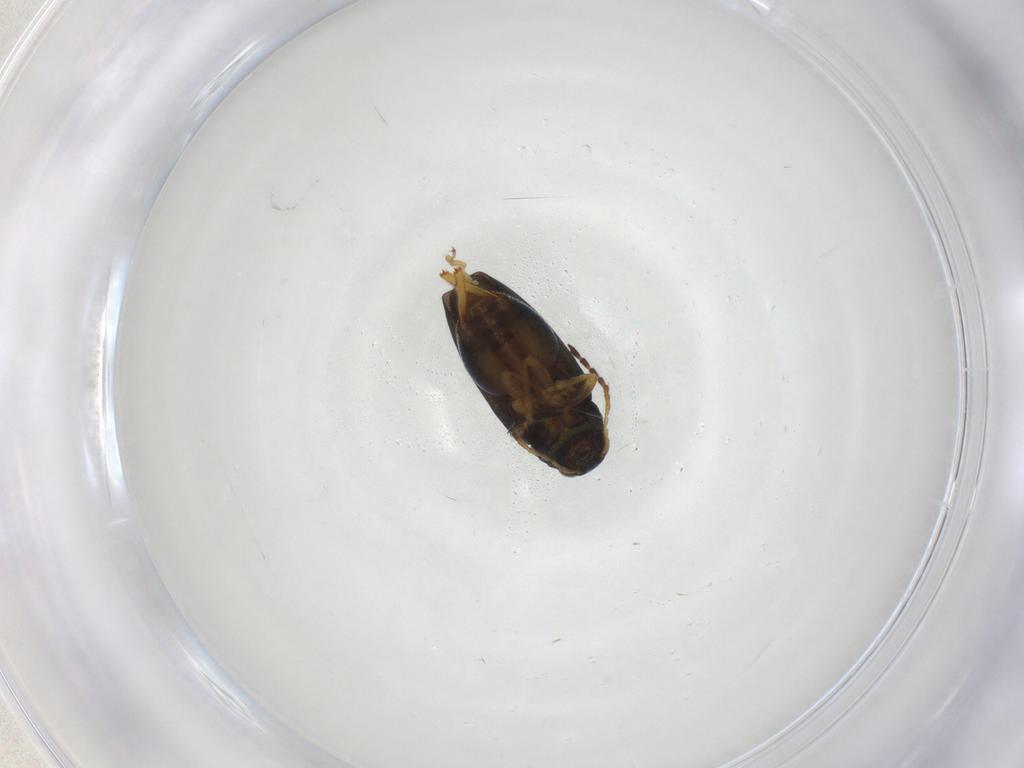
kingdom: Animalia
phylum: Arthropoda
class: Insecta
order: Coleoptera
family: Chrysomelidae
